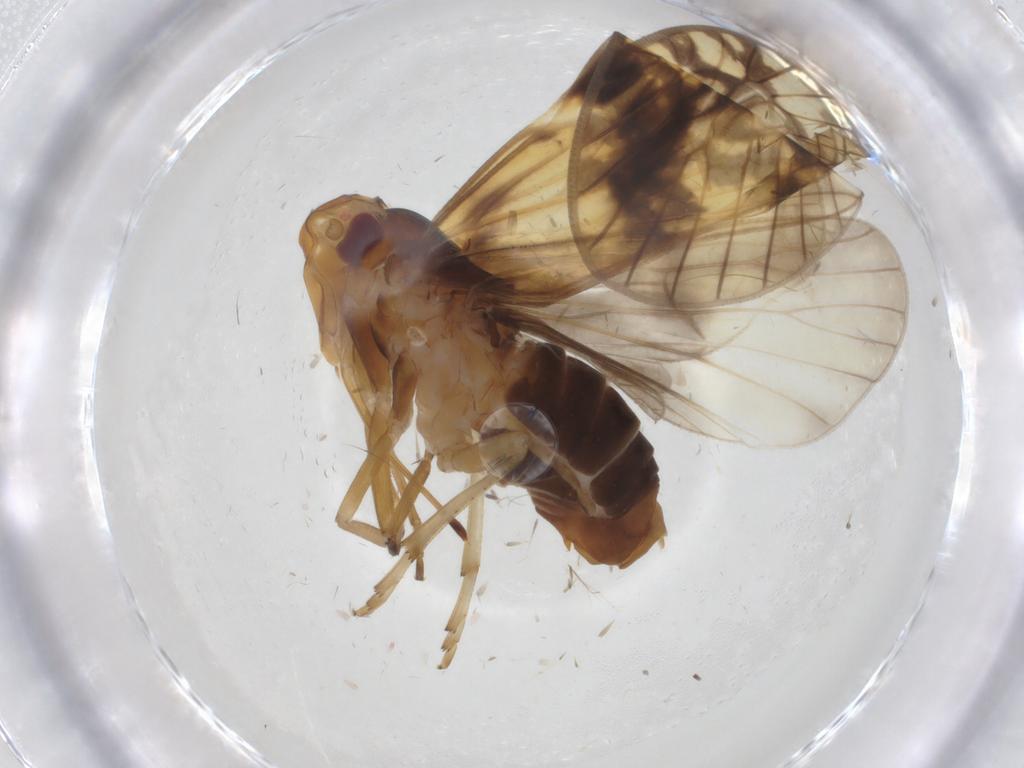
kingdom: Animalia
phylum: Arthropoda
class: Insecta
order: Hemiptera
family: Cixiidae
